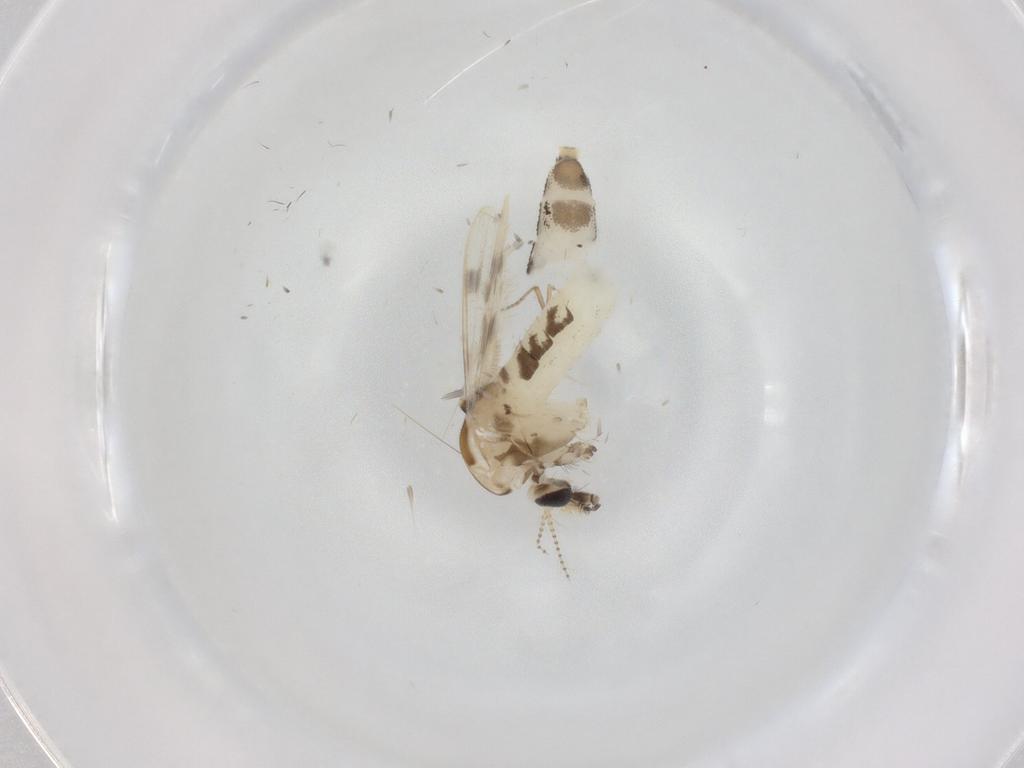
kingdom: Animalia
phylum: Arthropoda
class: Insecta
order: Diptera
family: Corethrellidae
